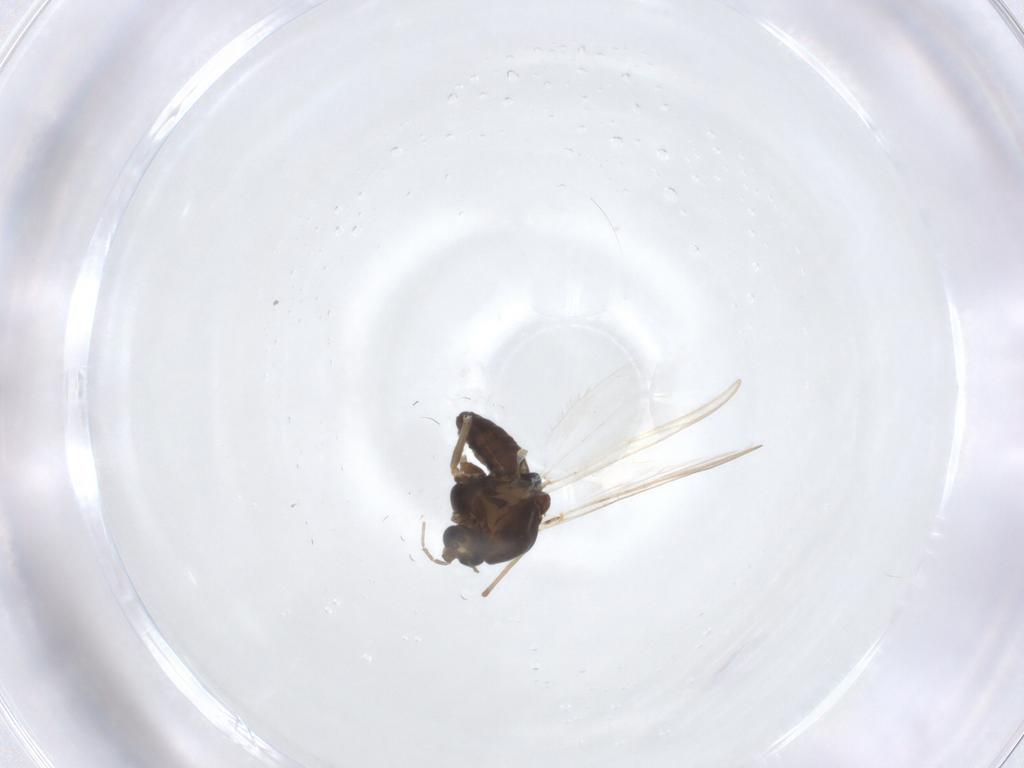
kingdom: Animalia
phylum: Arthropoda
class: Insecta
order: Diptera
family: Chironomidae
